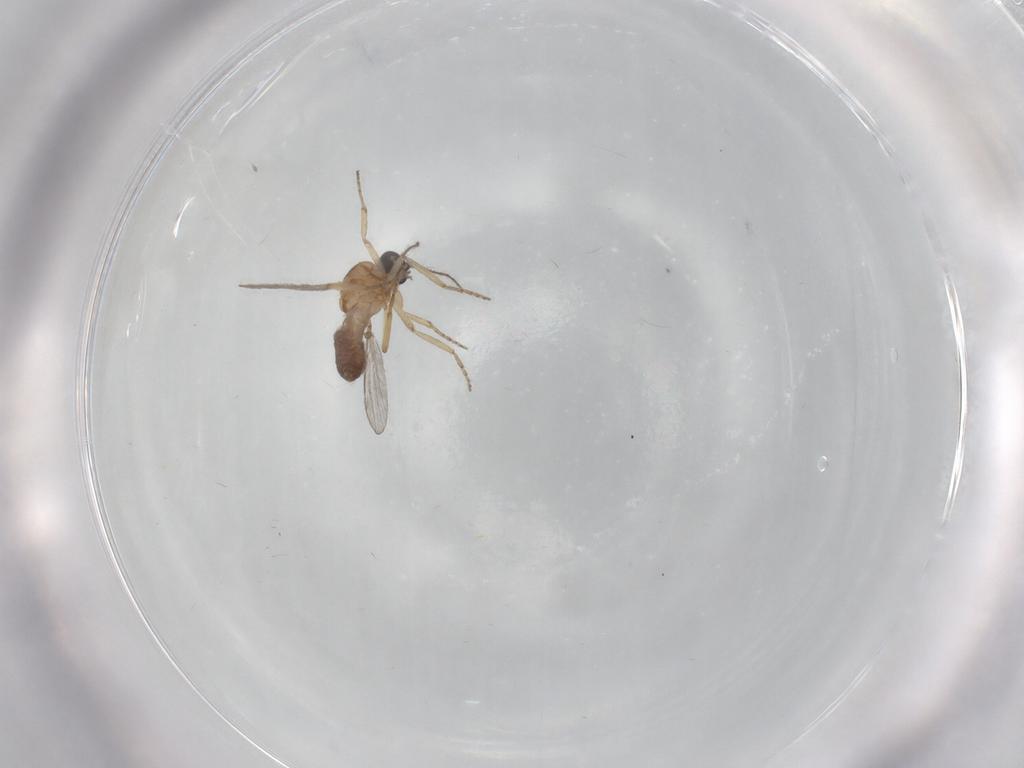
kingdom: Animalia
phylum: Arthropoda
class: Insecta
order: Diptera
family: Ceratopogonidae
